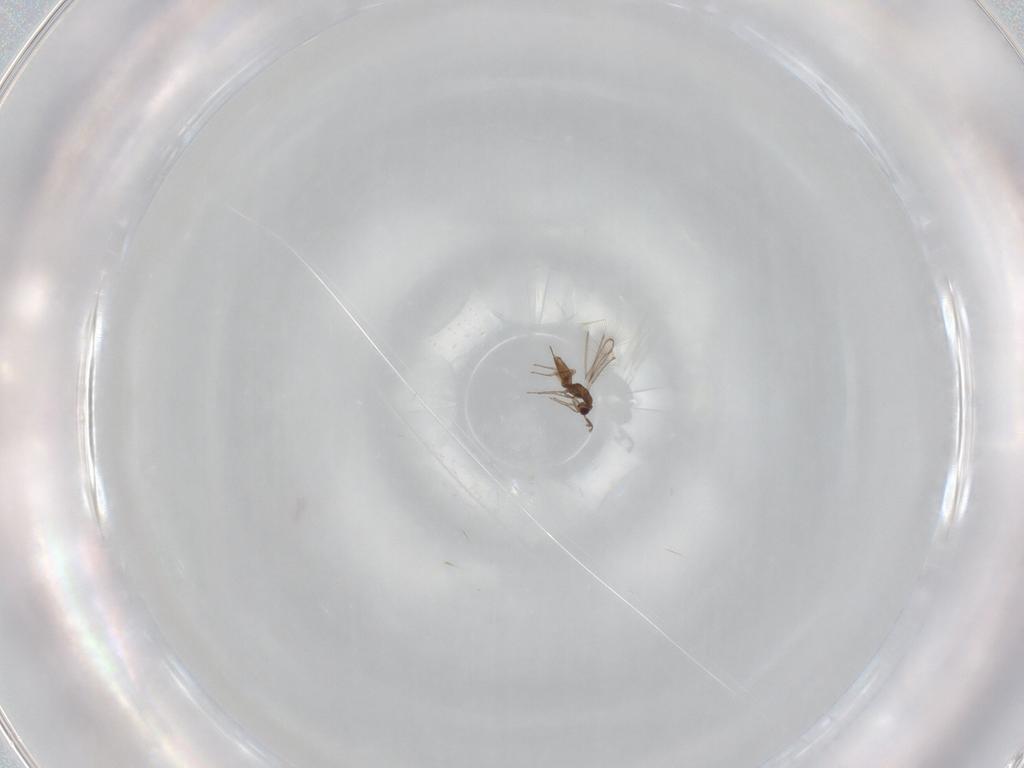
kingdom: Animalia
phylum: Arthropoda
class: Insecta
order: Hymenoptera
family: Mymaridae
